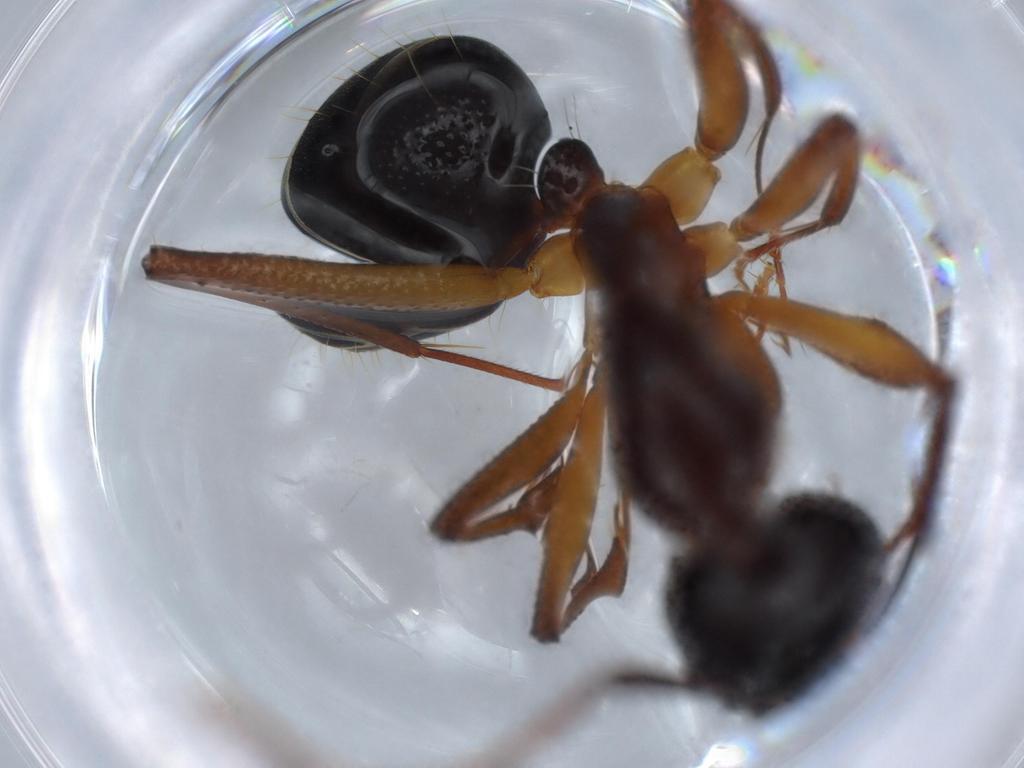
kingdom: Animalia
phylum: Arthropoda
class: Insecta
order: Hymenoptera
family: Formicidae
